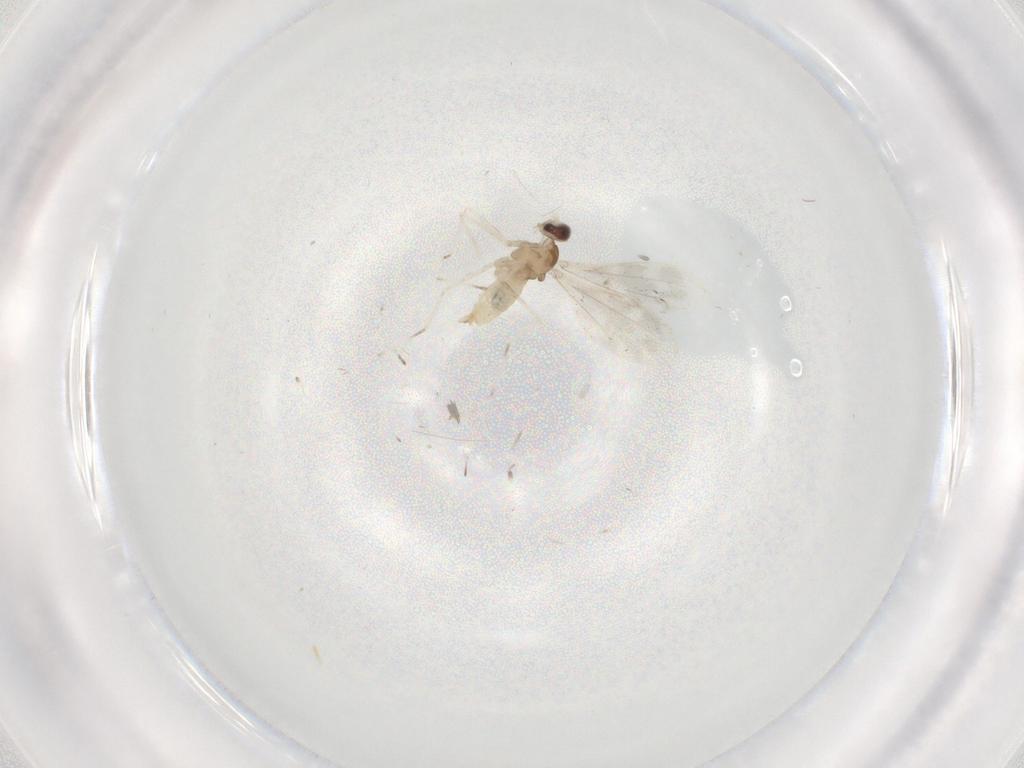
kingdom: Animalia
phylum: Arthropoda
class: Insecta
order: Diptera
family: Cecidomyiidae
